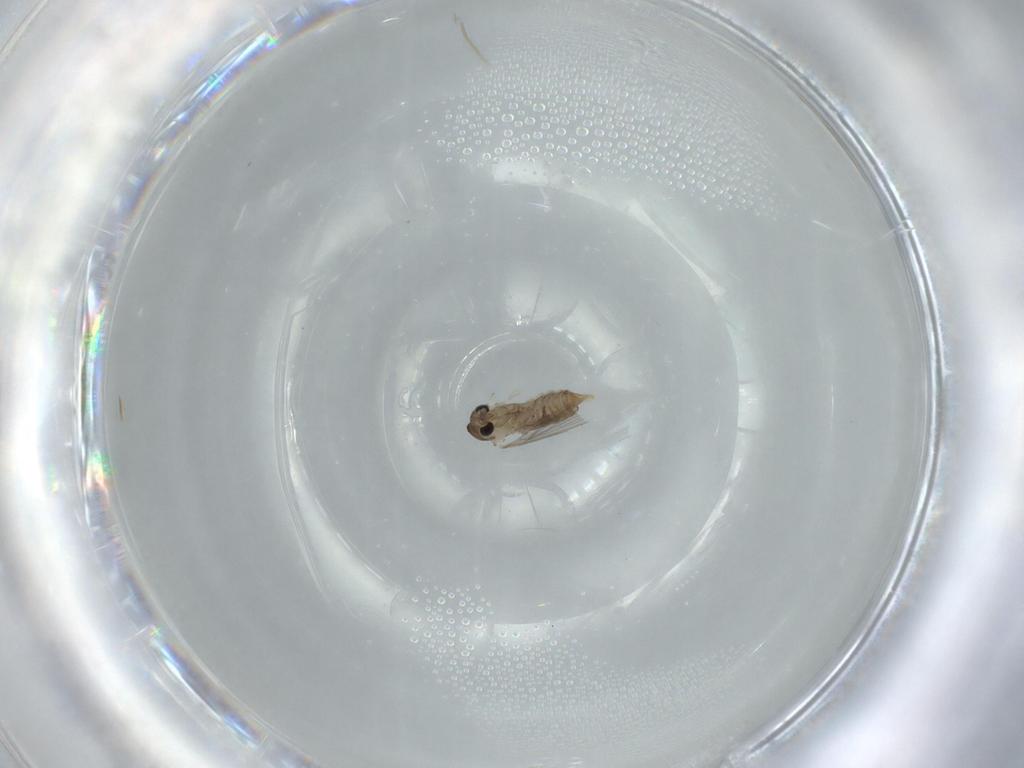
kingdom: Animalia
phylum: Arthropoda
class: Insecta
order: Diptera
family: Psychodidae
